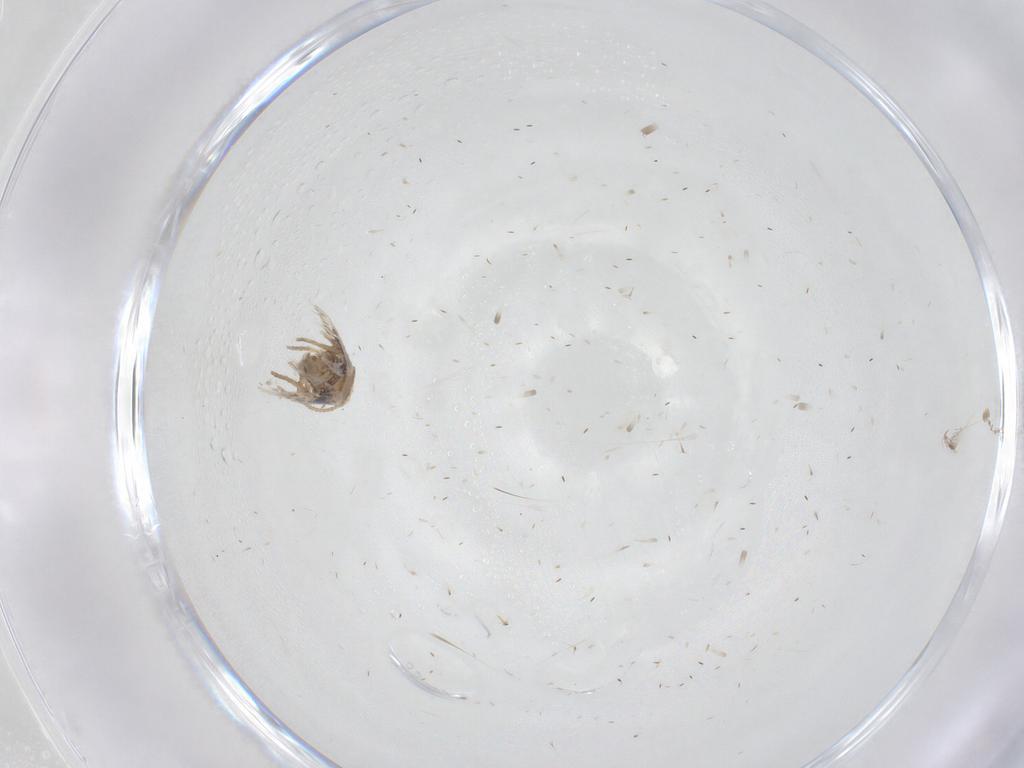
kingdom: Animalia
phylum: Arthropoda
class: Insecta
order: Lepidoptera
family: Nepticulidae
